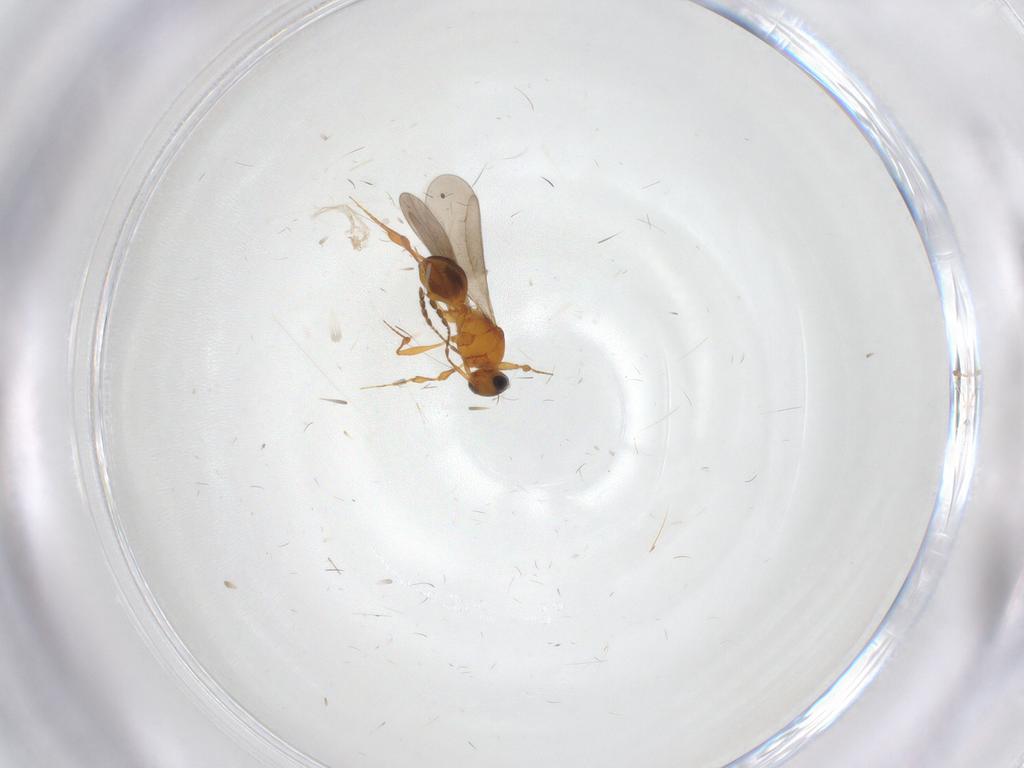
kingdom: Animalia
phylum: Arthropoda
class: Insecta
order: Hymenoptera
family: Platygastridae
